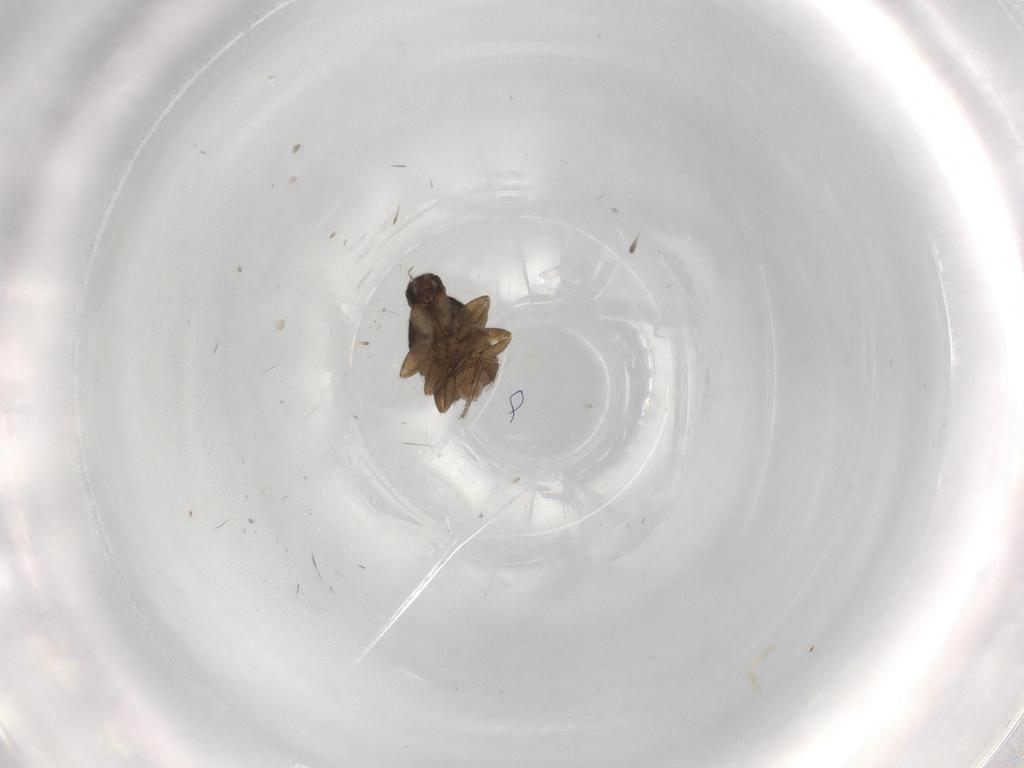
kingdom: Animalia
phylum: Arthropoda
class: Insecta
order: Diptera
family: Phoridae
